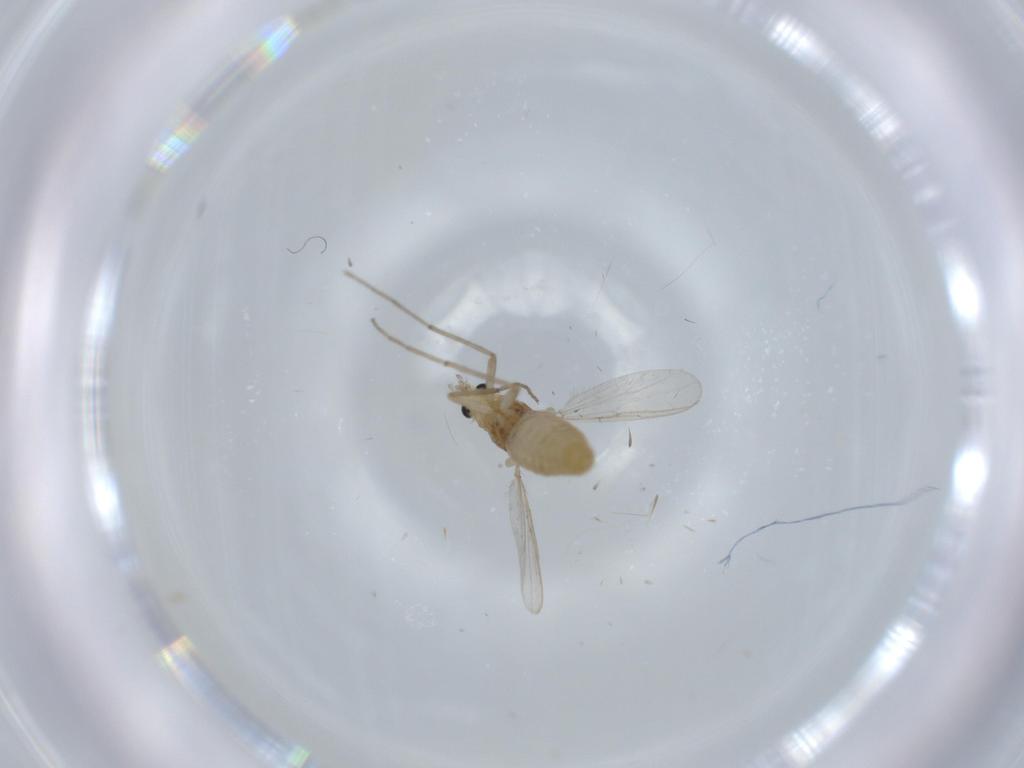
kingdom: Animalia
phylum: Arthropoda
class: Insecta
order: Diptera
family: Chironomidae
